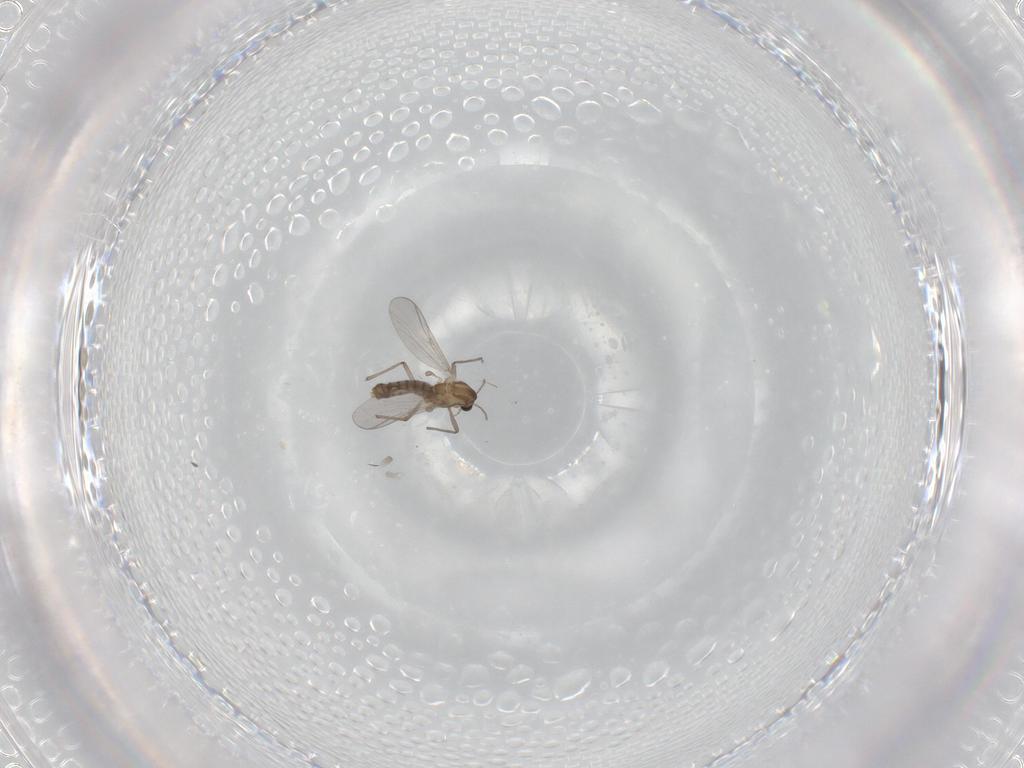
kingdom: Animalia
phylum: Arthropoda
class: Insecta
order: Diptera
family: Chironomidae
